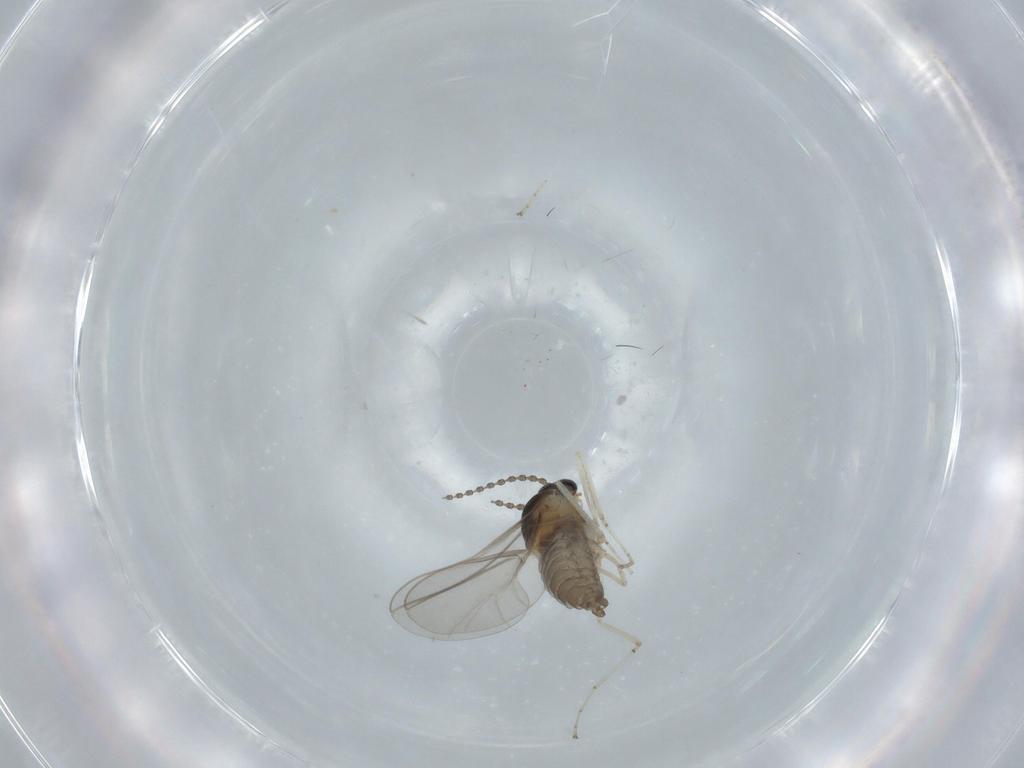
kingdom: Animalia
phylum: Arthropoda
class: Insecta
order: Diptera
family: Cecidomyiidae
